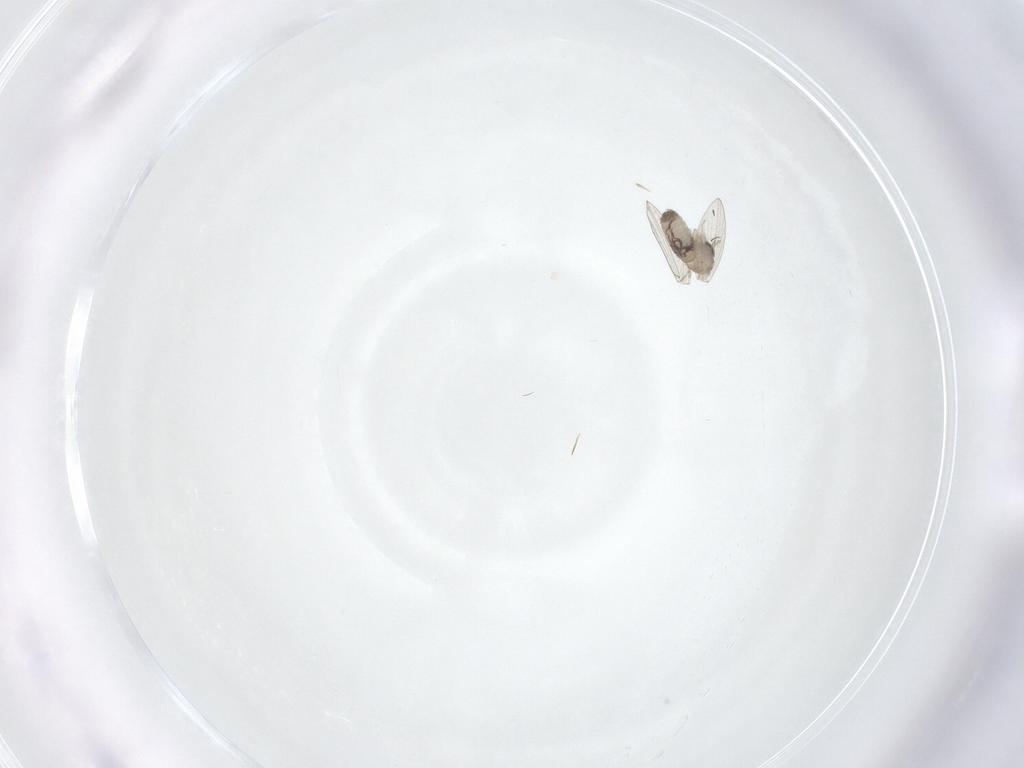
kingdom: Animalia
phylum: Arthropoda
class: Insecta
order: Diptera
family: Psychodidae
